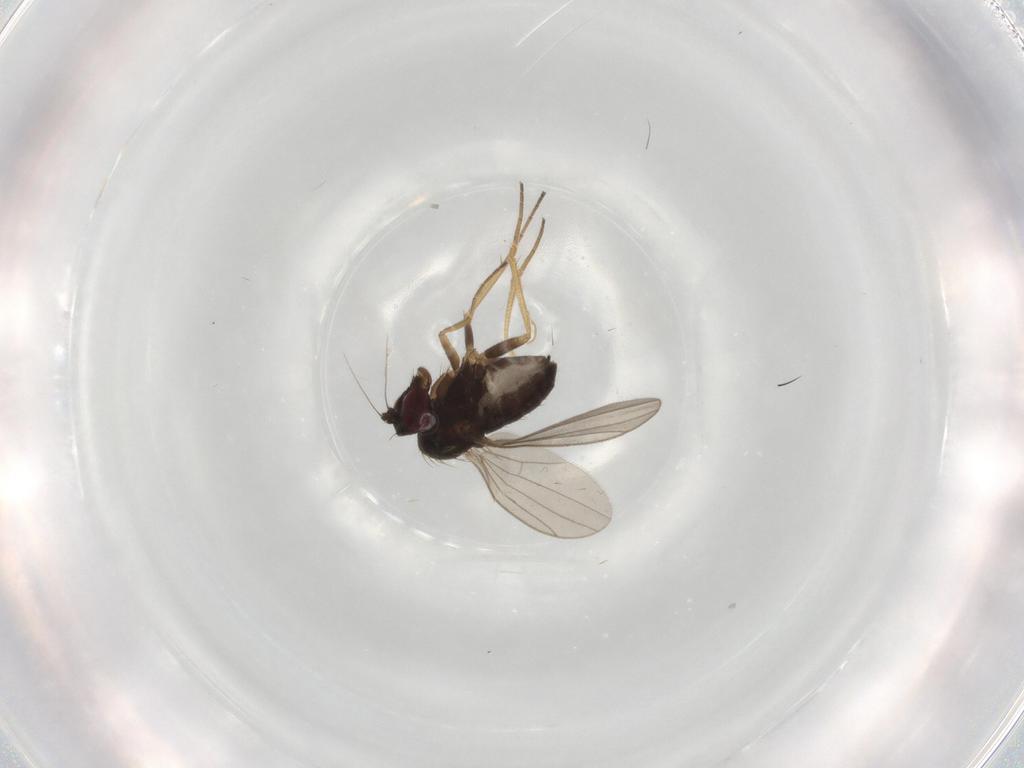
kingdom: Animalia
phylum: Arthropoda
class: Insecta
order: Diptera
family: Dolichopodidae
